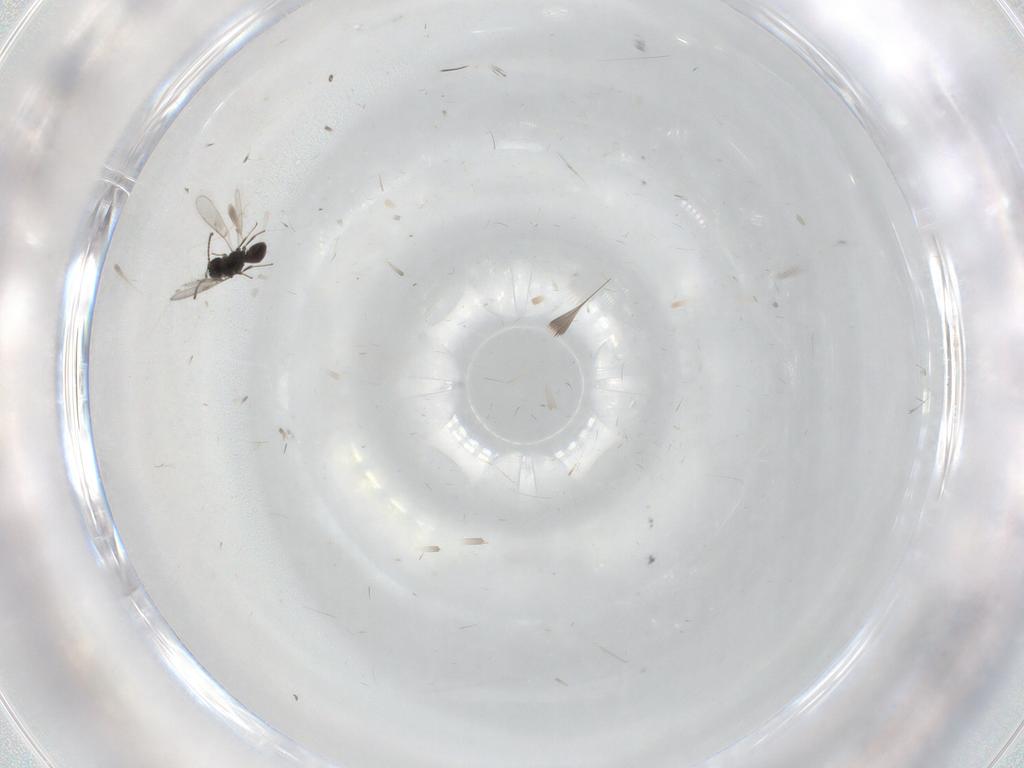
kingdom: Animalia
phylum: Arthropoda
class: Insecta
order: Hymenoptera
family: Scelionidae
